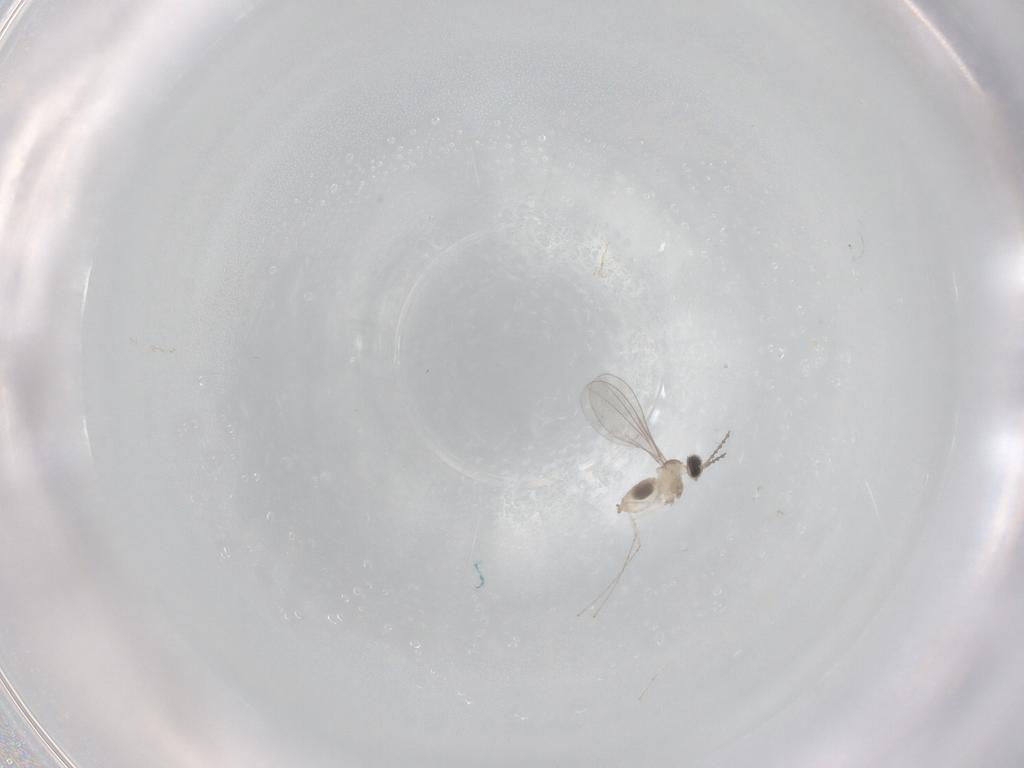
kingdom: Animalia
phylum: Arthropoda
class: Insecta
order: Diptera
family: Cecidomyiidae
